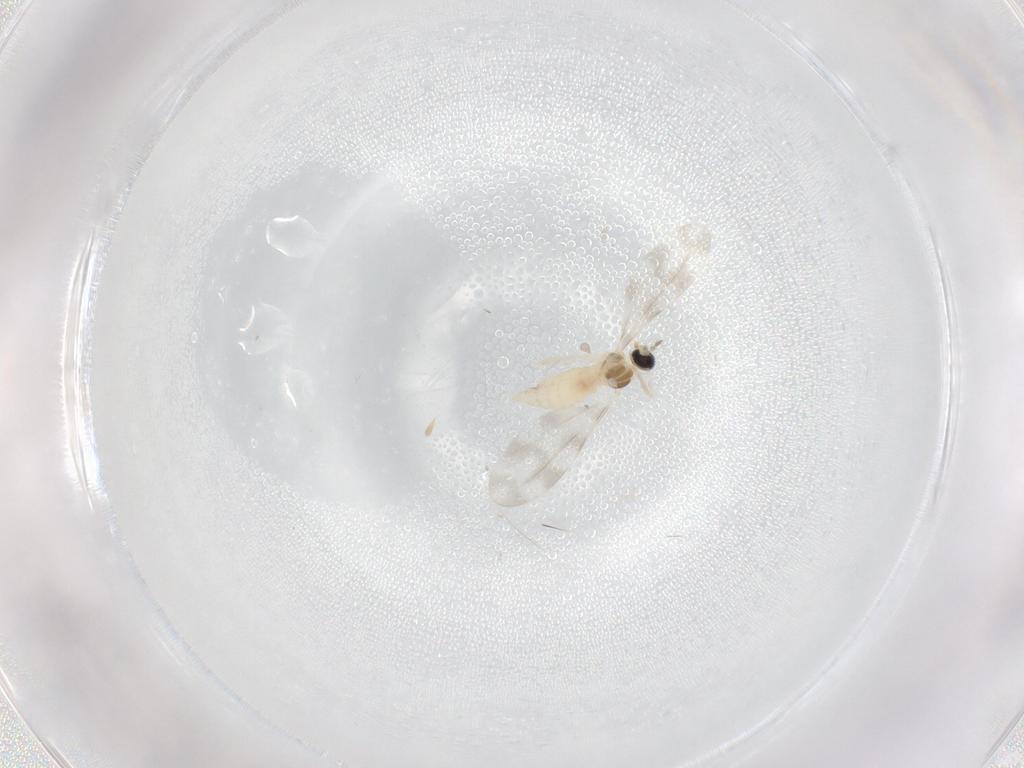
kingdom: Animalia
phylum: Arthropoda
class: Insecta
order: Diptera
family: Cecidomyiidae
